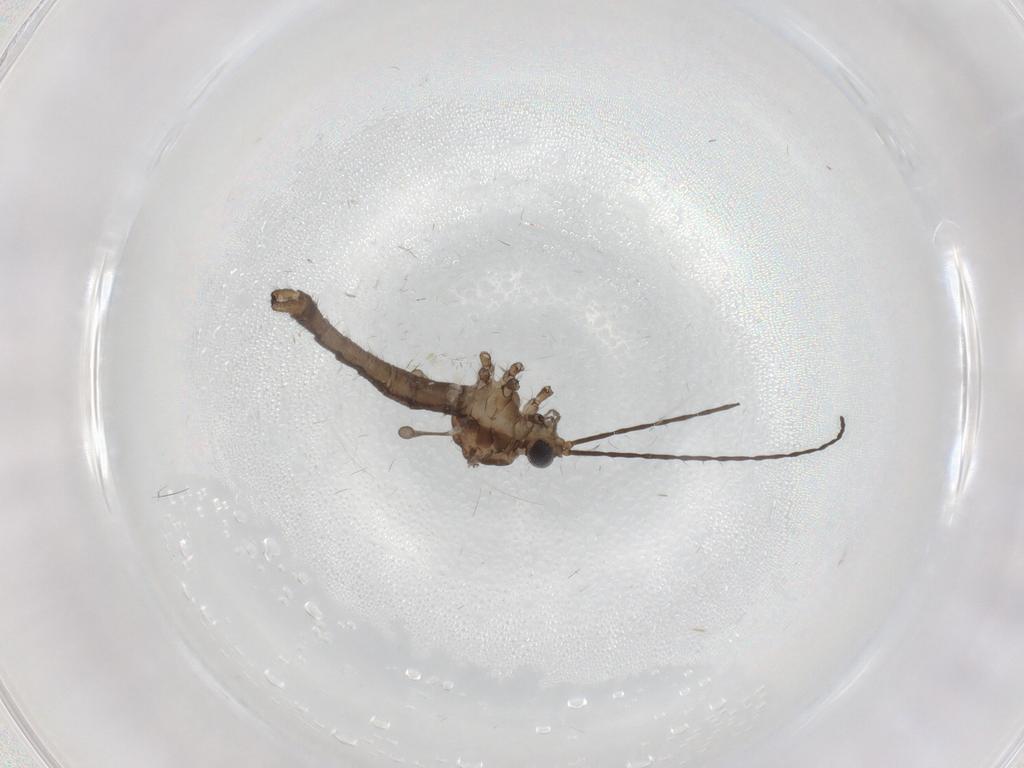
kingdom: Animalia
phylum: Arthropoda
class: Insecta
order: Diptera
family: Limoniidae
